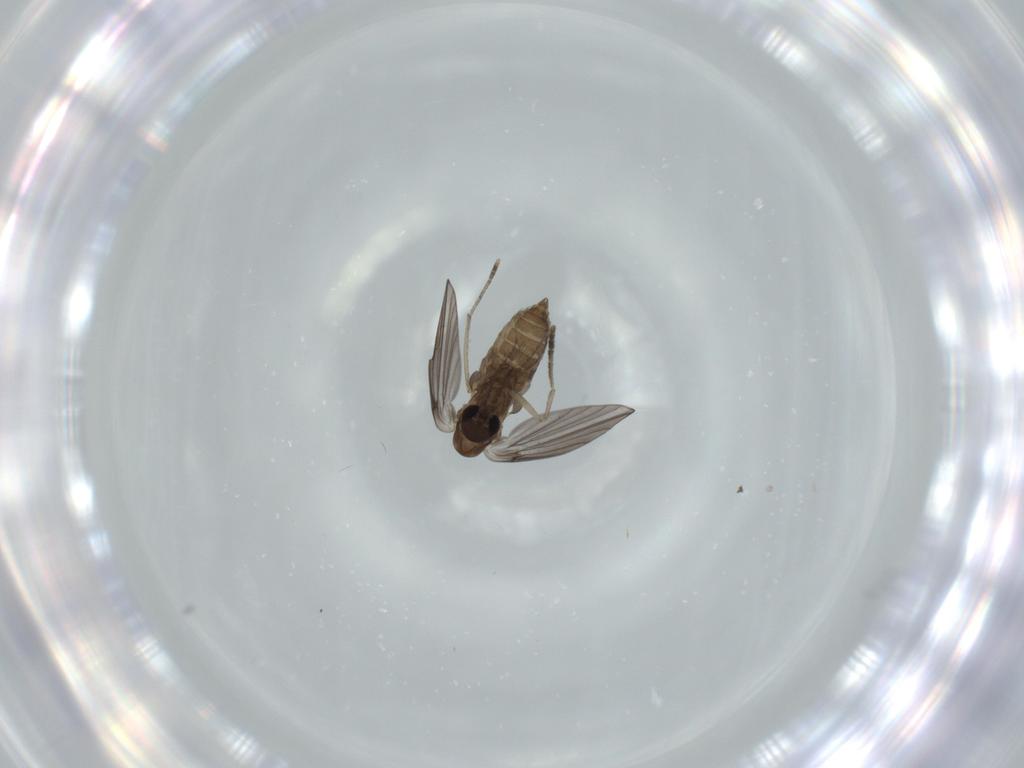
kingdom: Animalia
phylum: Arthropoda
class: Insecta
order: Diptera
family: Psychodidae
